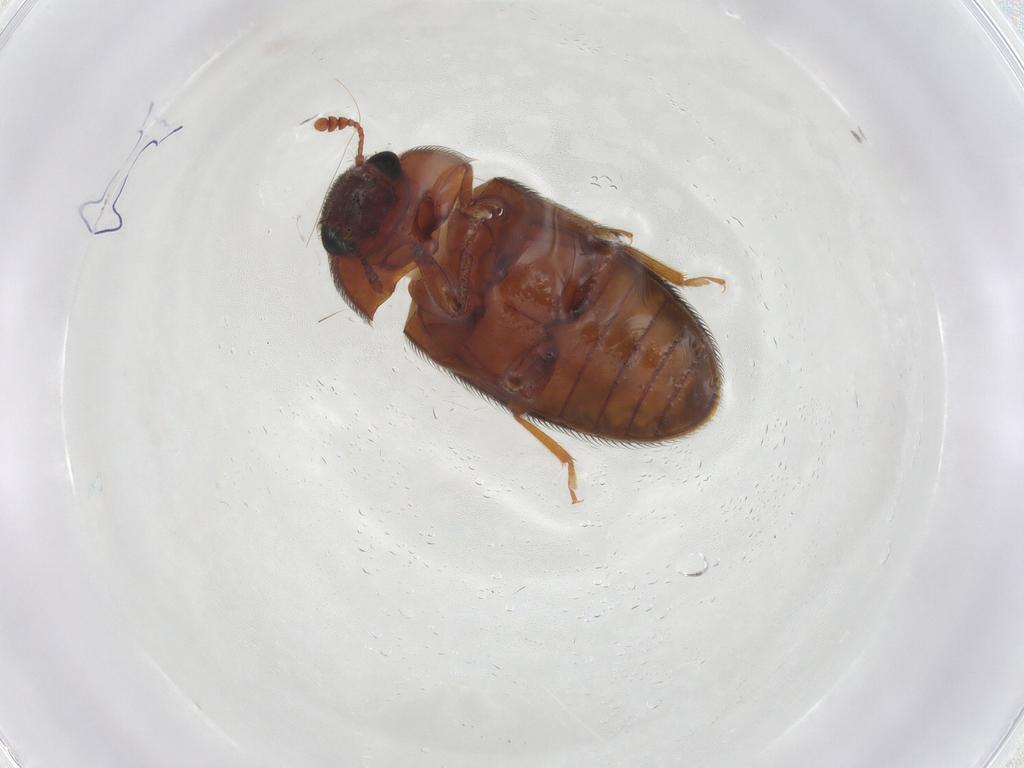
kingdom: Animalia
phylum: Arthropoda
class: Insecta
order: Coleoptera
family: Biphyllidae
